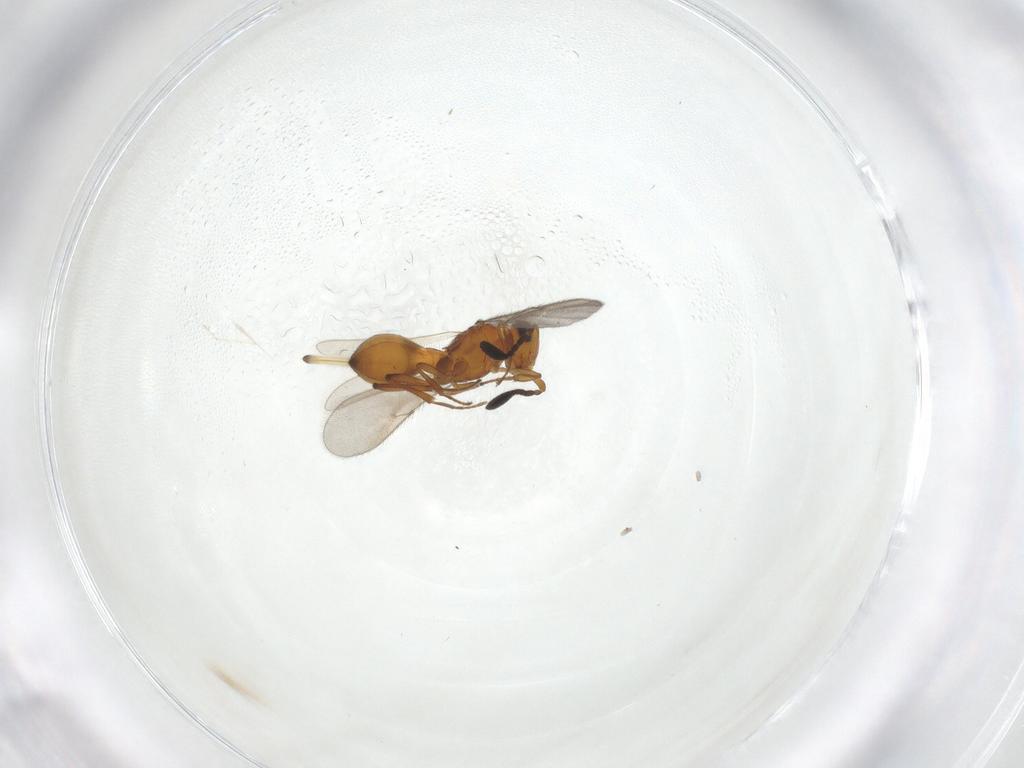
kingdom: Animalia
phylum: Arthropoda
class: Insecta
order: Hymenoptera
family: Scelionidae
